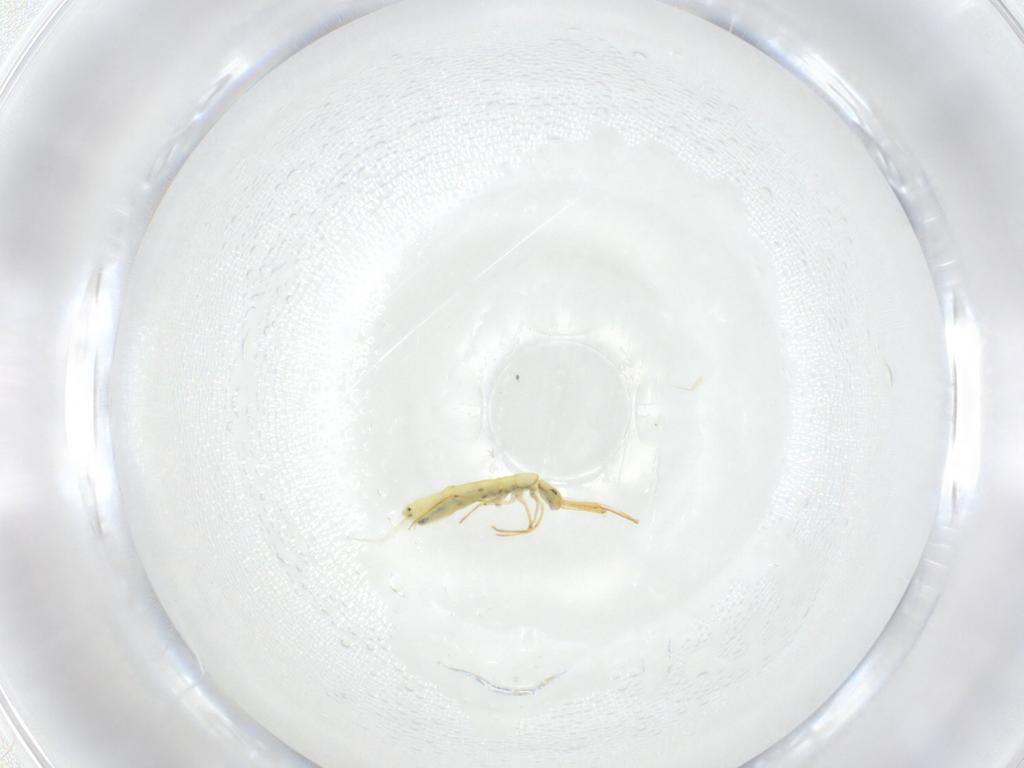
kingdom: Animalia
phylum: Arthropoda
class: Collembola
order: Entomobryomorpha
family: Entomobryidae
